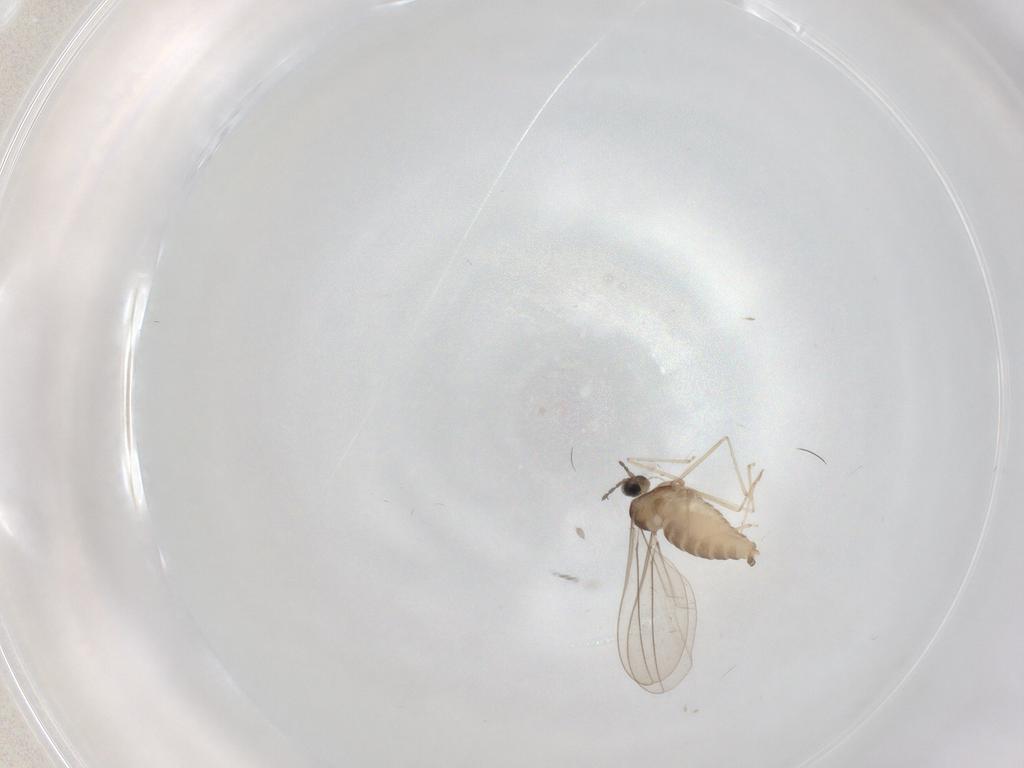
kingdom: Animalia
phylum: Arthropoda
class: Insecta
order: Diptera
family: Cecidomyiidae
